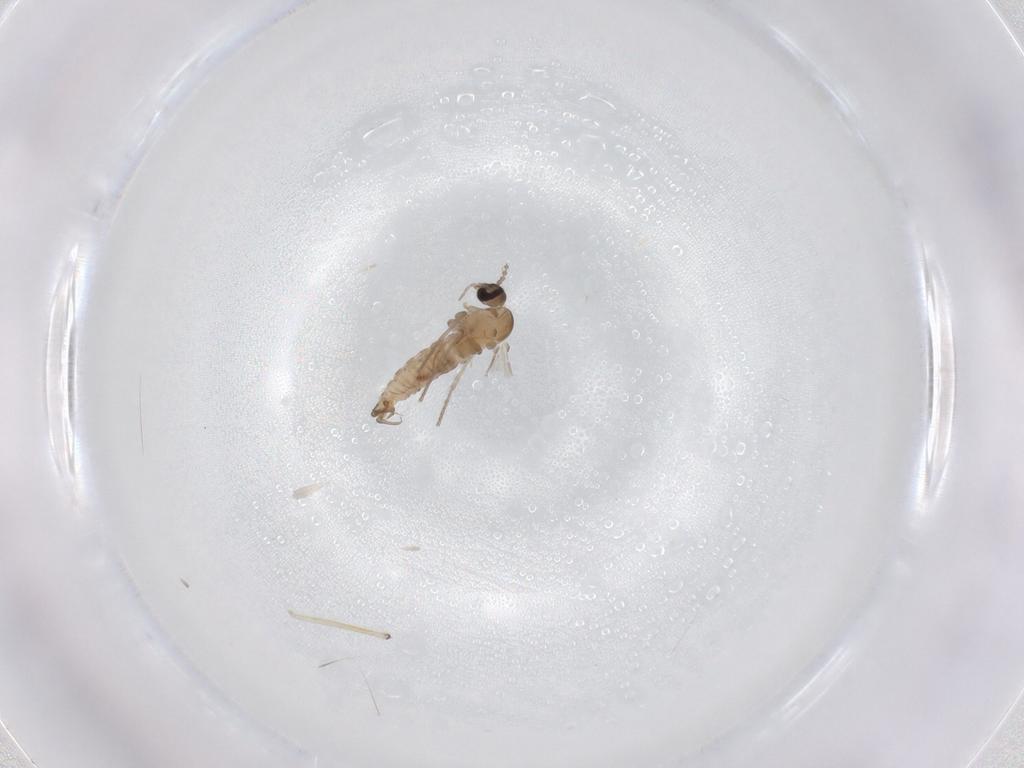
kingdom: Animalia
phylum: Arthropoda
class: Insecta
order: Diptera
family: Psychodidae
